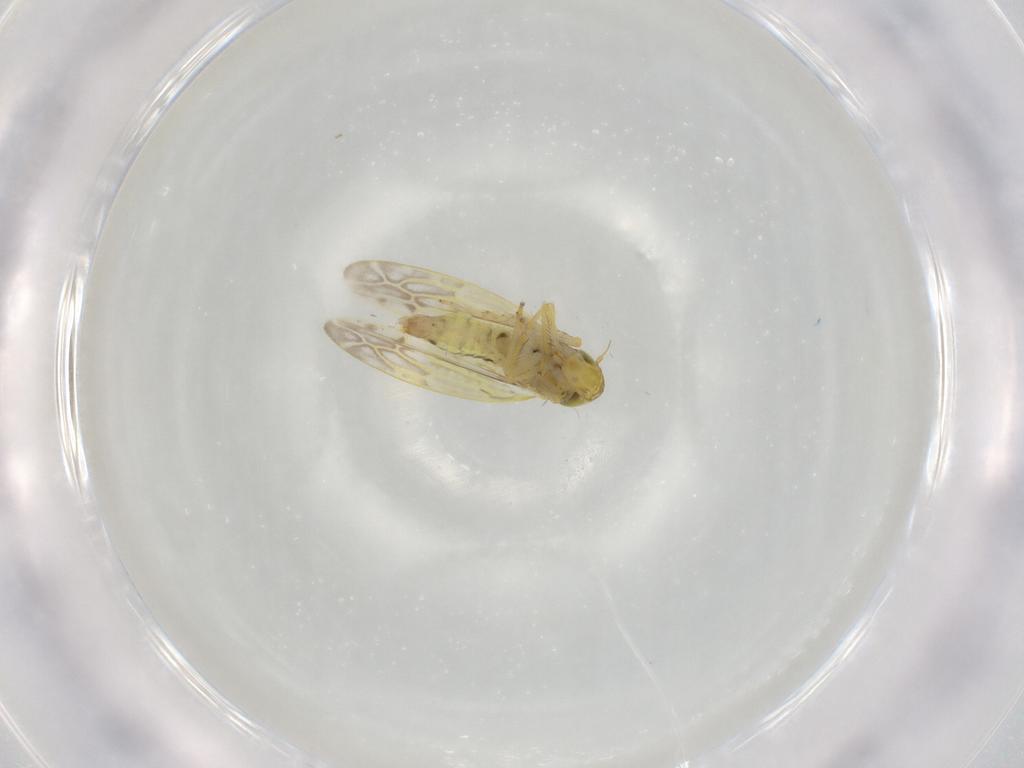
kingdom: Animalia
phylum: Arthropoda
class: Insecta
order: Hemiptera
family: Cicadellidae
